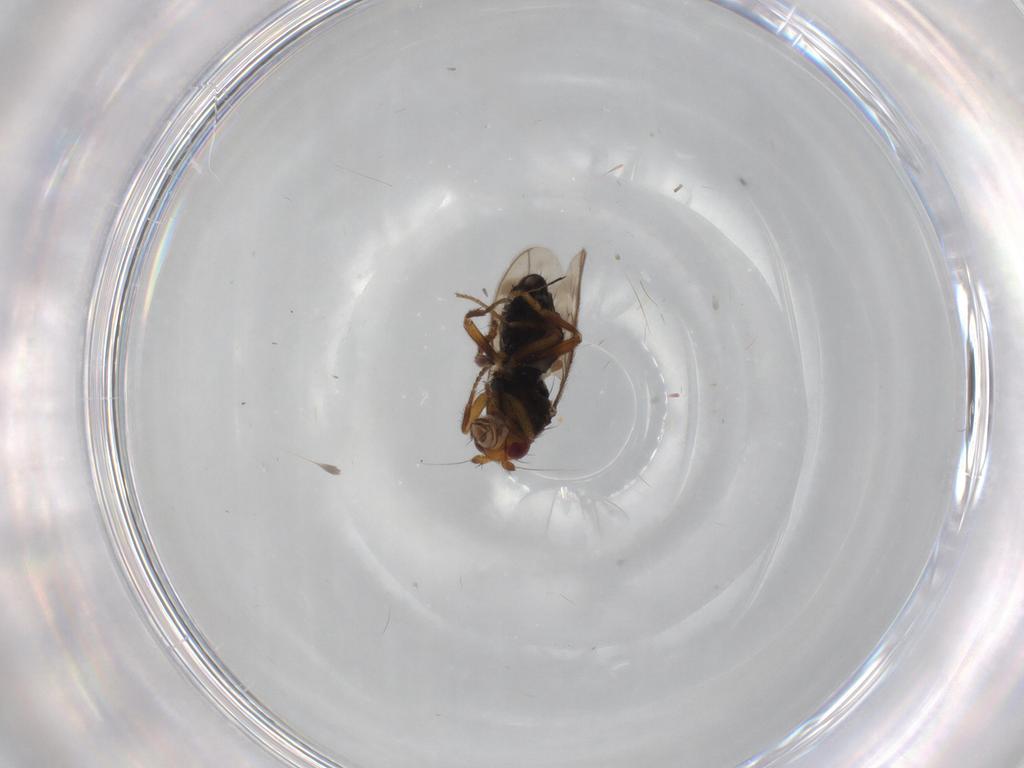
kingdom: Animalia
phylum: Arthropoda
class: Insecta
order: Diptera
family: Sphaeroceridae
